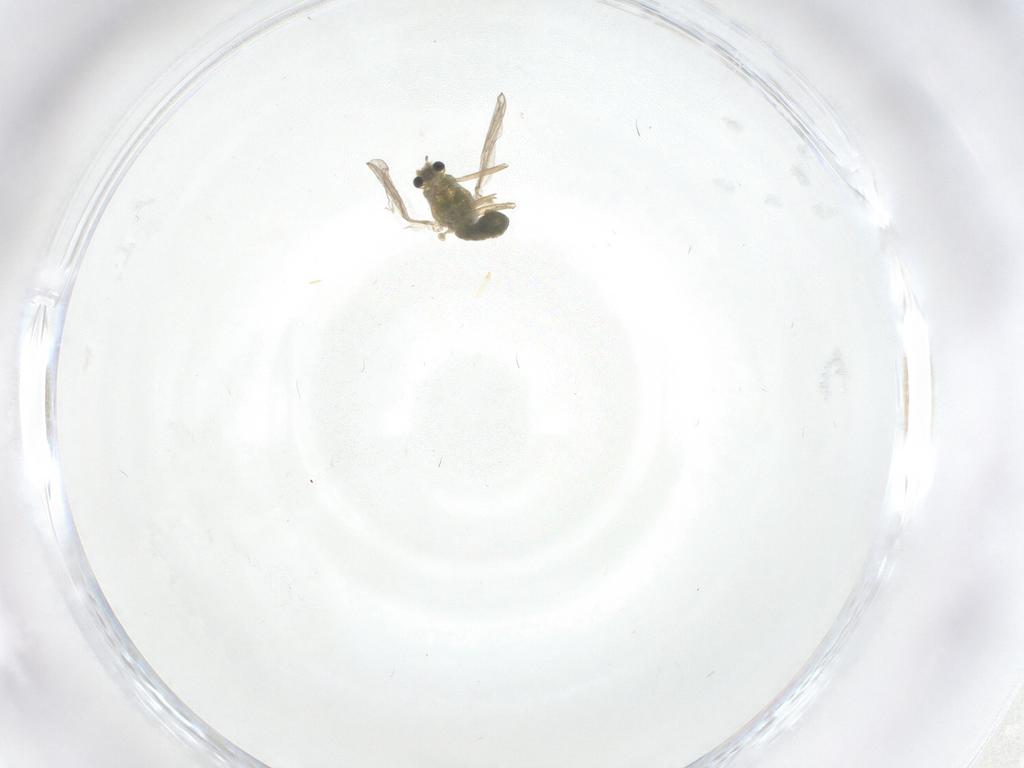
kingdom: Animalia
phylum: Arthropoda
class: Insecta
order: Diptera
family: Chironomidae
